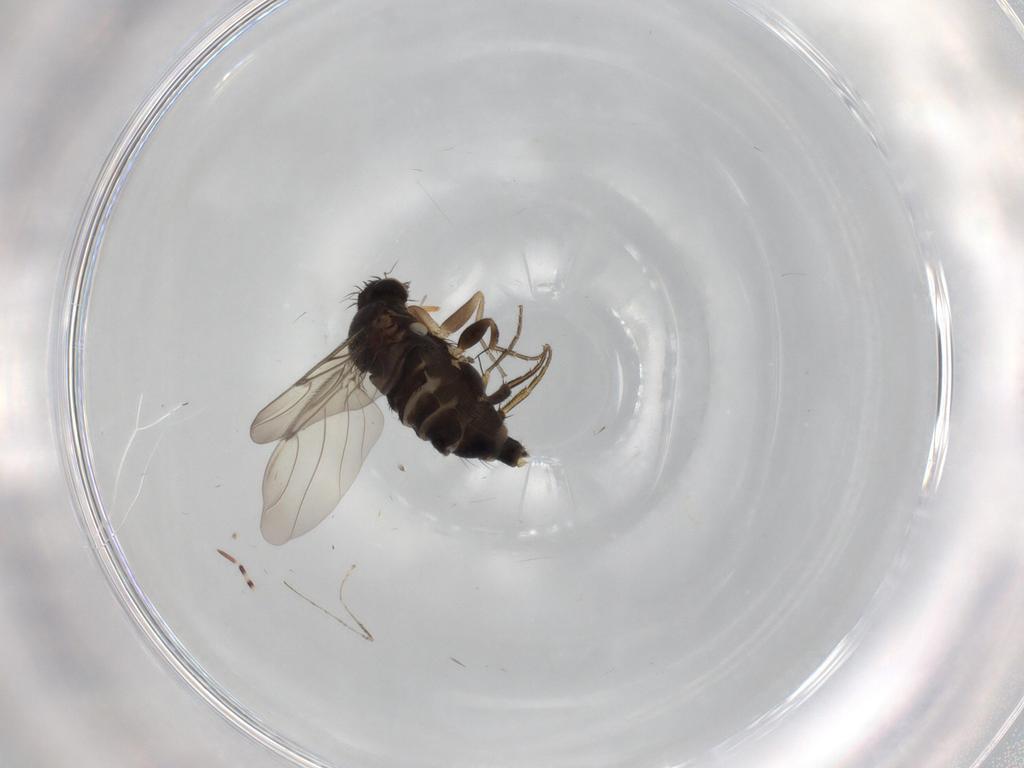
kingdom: Animalia
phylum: Arthropoda
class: Insecta
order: Diptera
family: Phoridae
